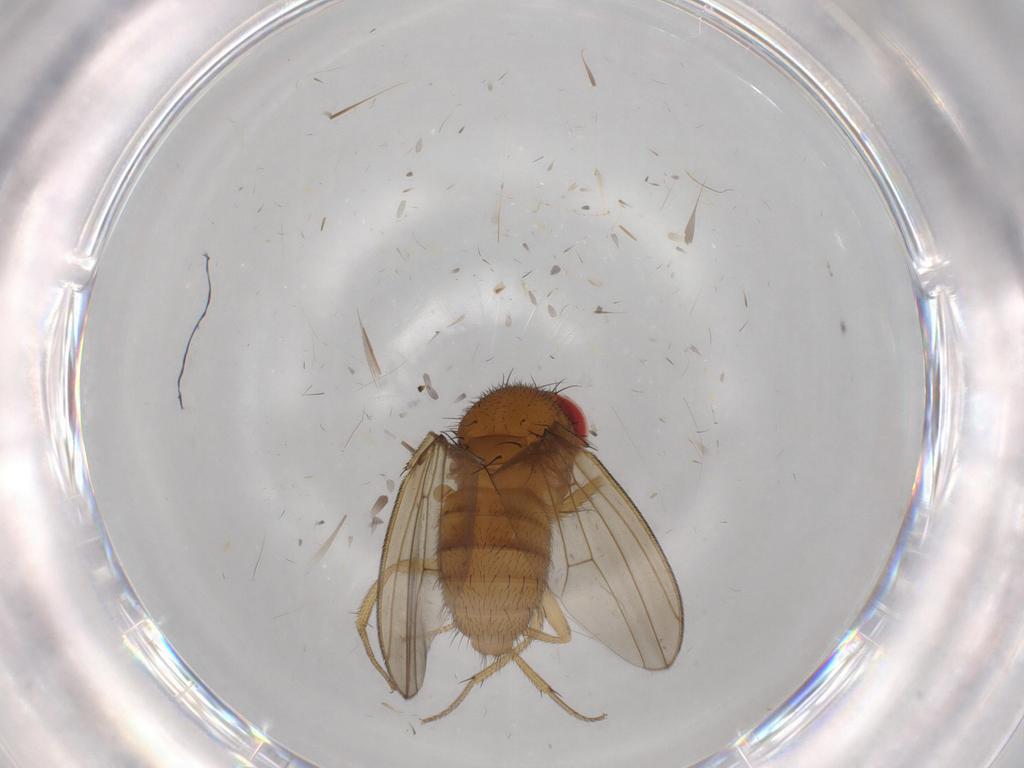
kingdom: Animalia
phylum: Arthropoda
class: Insecta
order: Diptera
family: Drosophilidae
